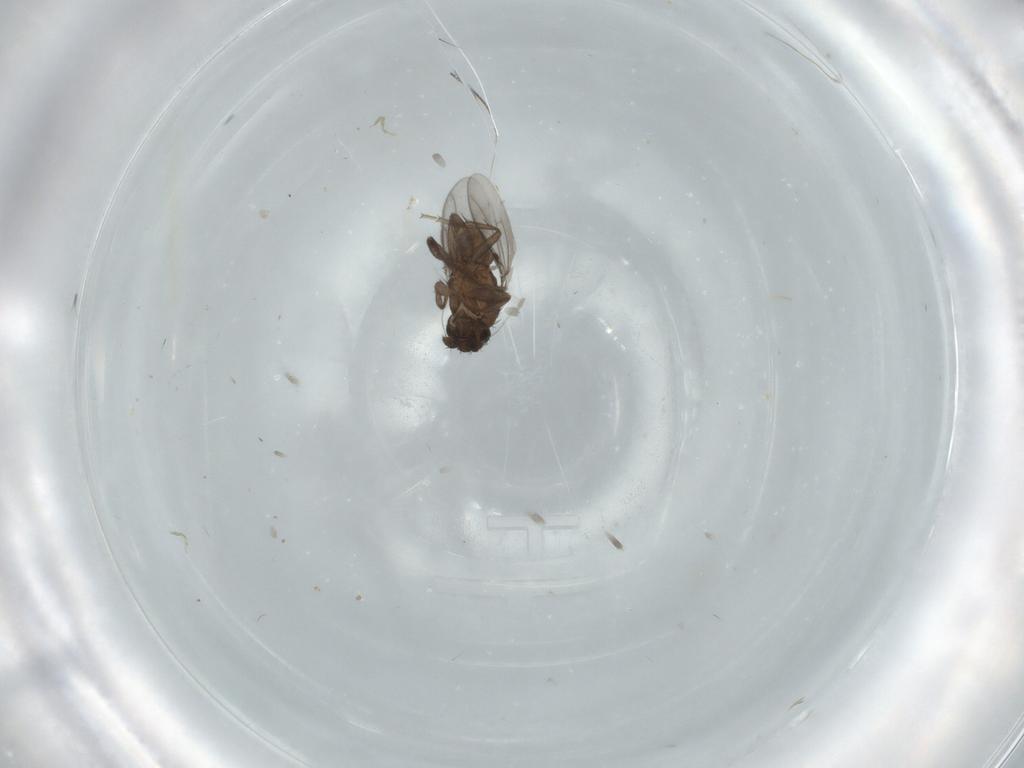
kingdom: Animalia
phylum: Arthropoda
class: Insecta
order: Diptera
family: Sphaeroceridae
